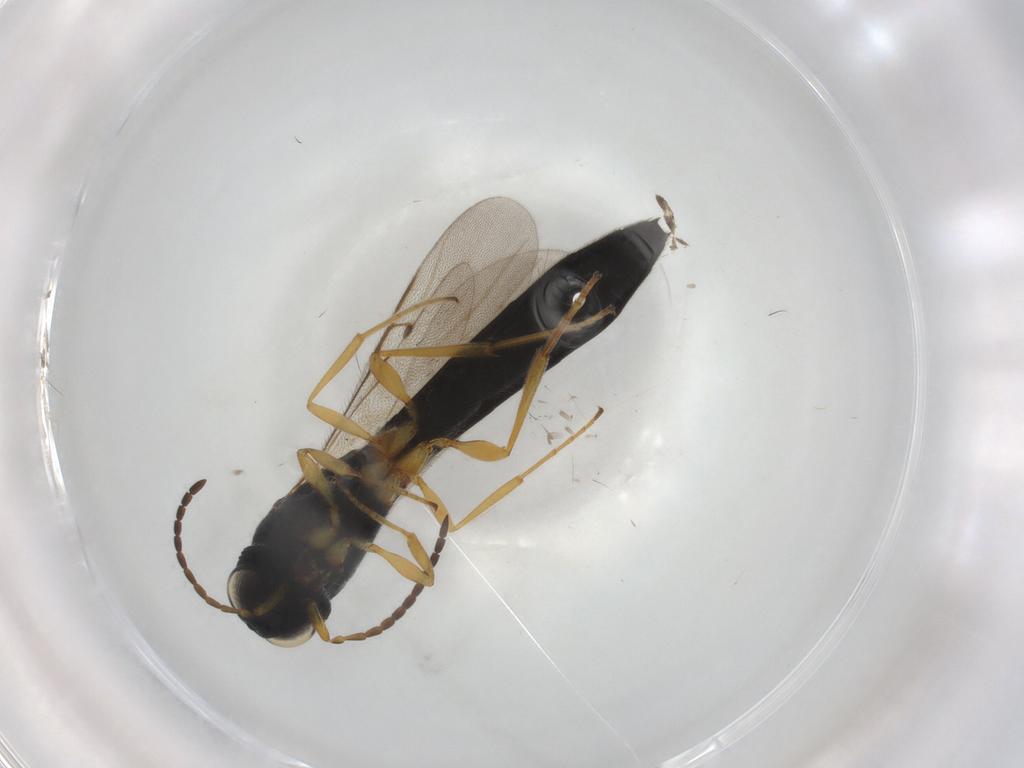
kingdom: Animalia
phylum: Arthropoda
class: Insecta
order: Hymenoptera
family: Scelionidae
